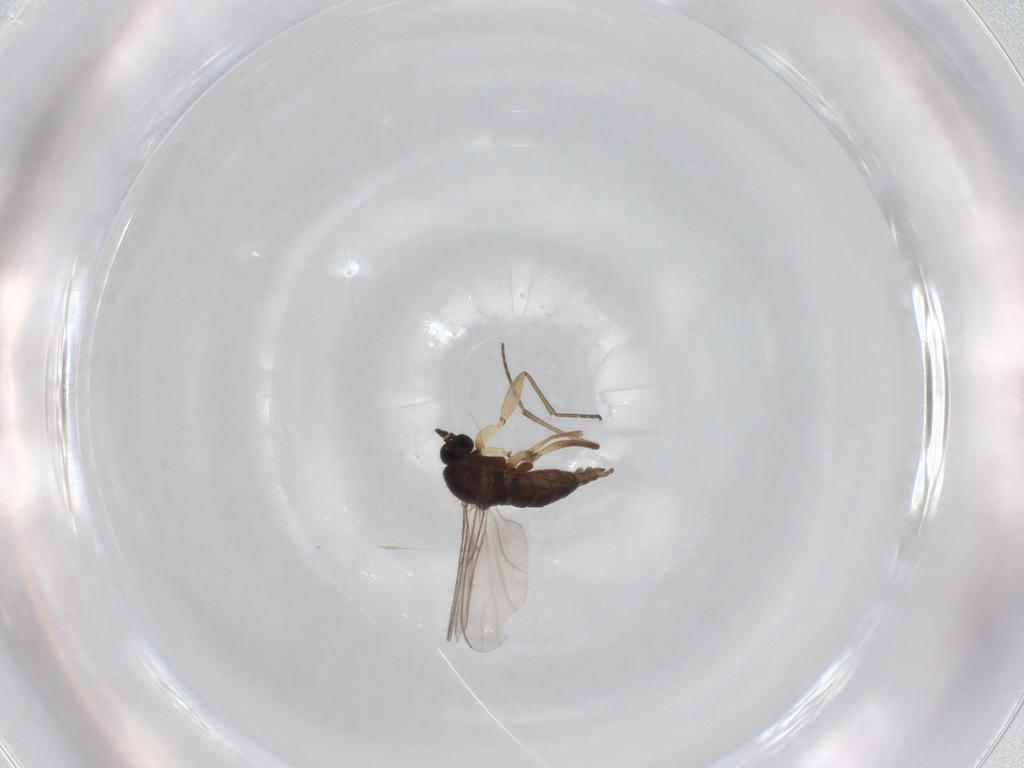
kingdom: Animalia
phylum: Arthropoda
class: Insecta
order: Diptera
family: Sciaridae
